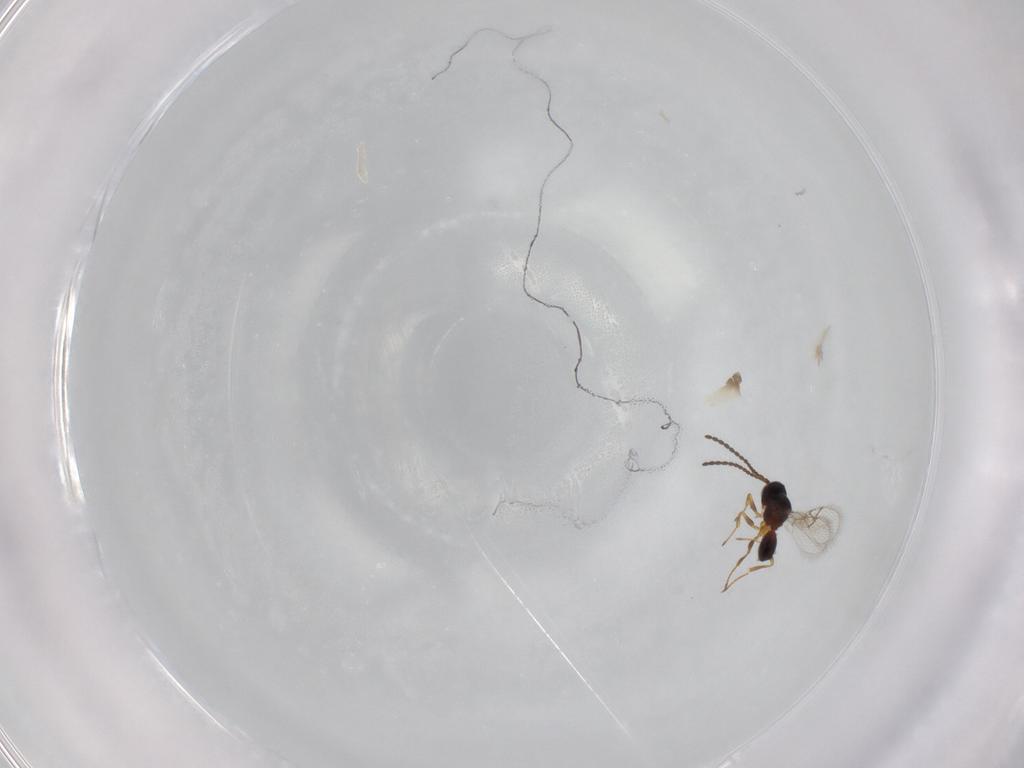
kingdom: Animalia
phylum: Arthropoda
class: Insecta
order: Hymenoptera
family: Figitidae
